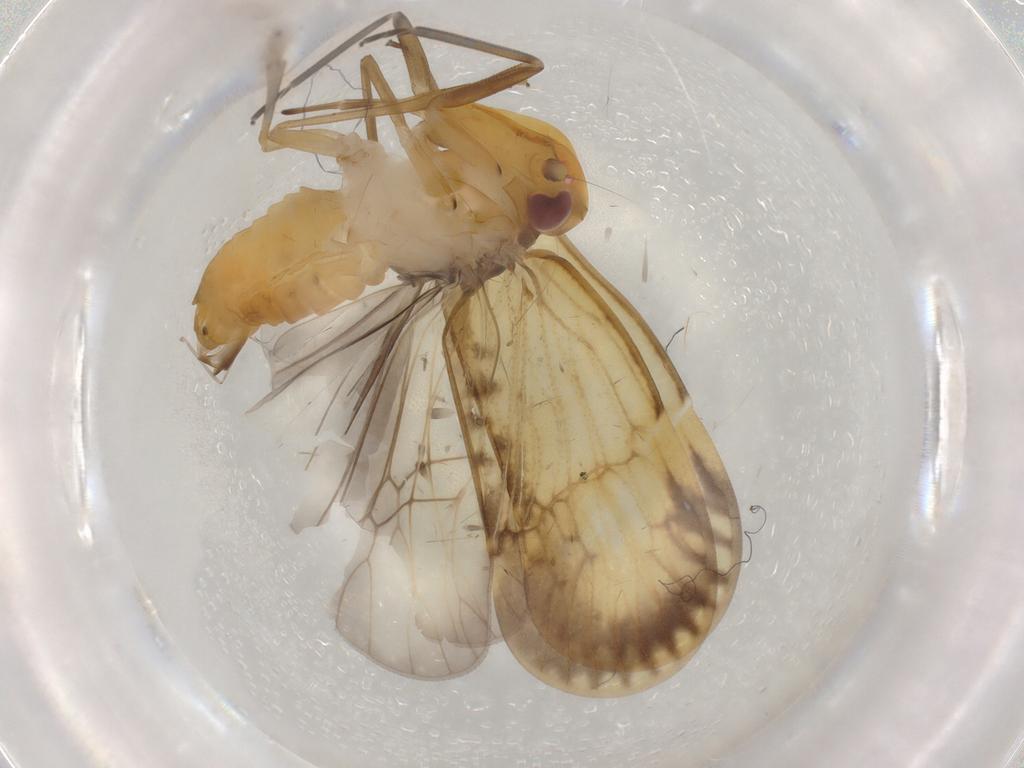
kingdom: Animalia
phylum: Arthropoda
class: Insecta
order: Hemiptera
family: Cixiidae
